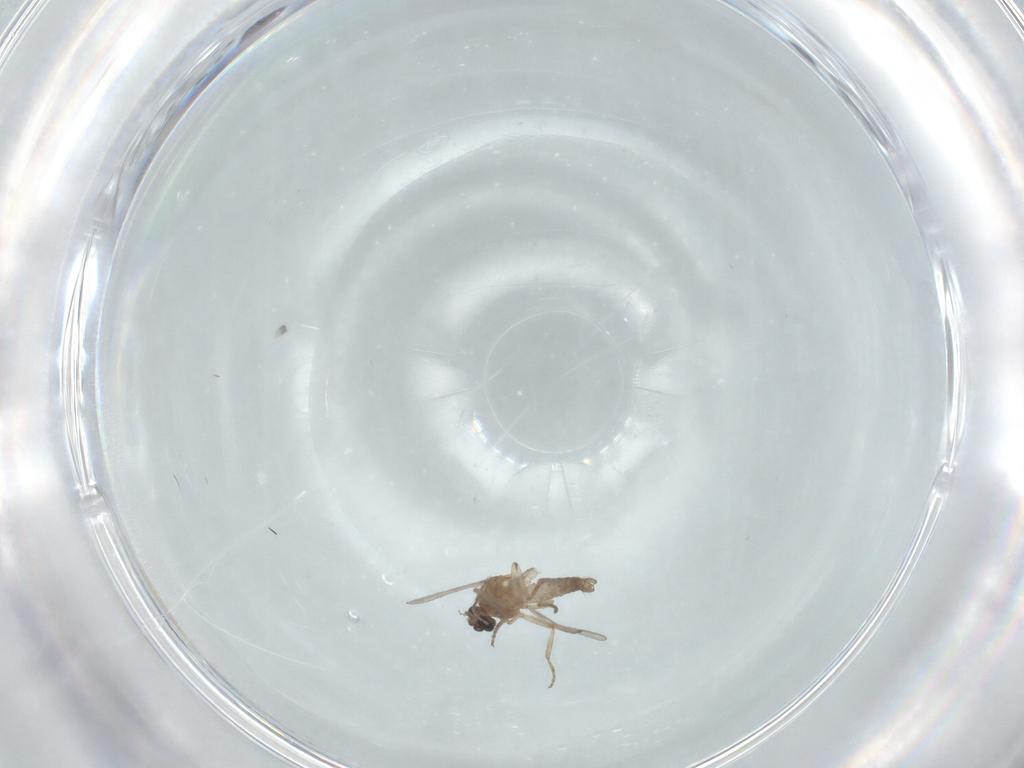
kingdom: Animalia
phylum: Arthropoda
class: Insecta
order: Diptera
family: Ceratopogonidae
